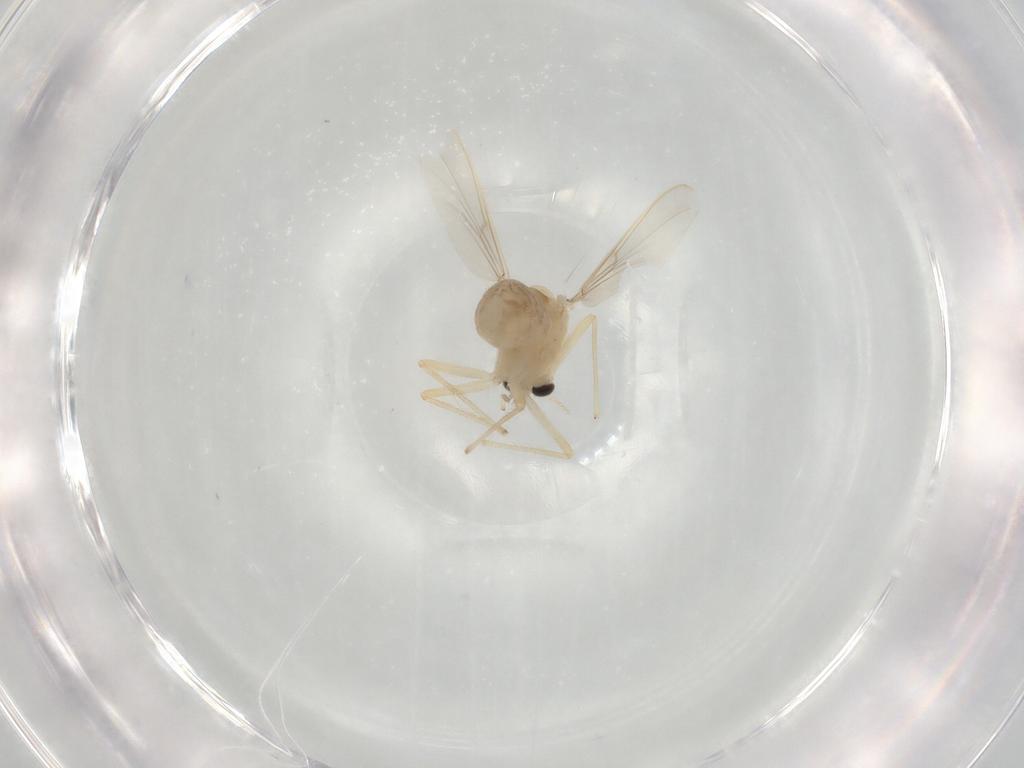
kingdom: Animalia
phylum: Arthropoda
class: Insecta
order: Diptera
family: Chironomidae
